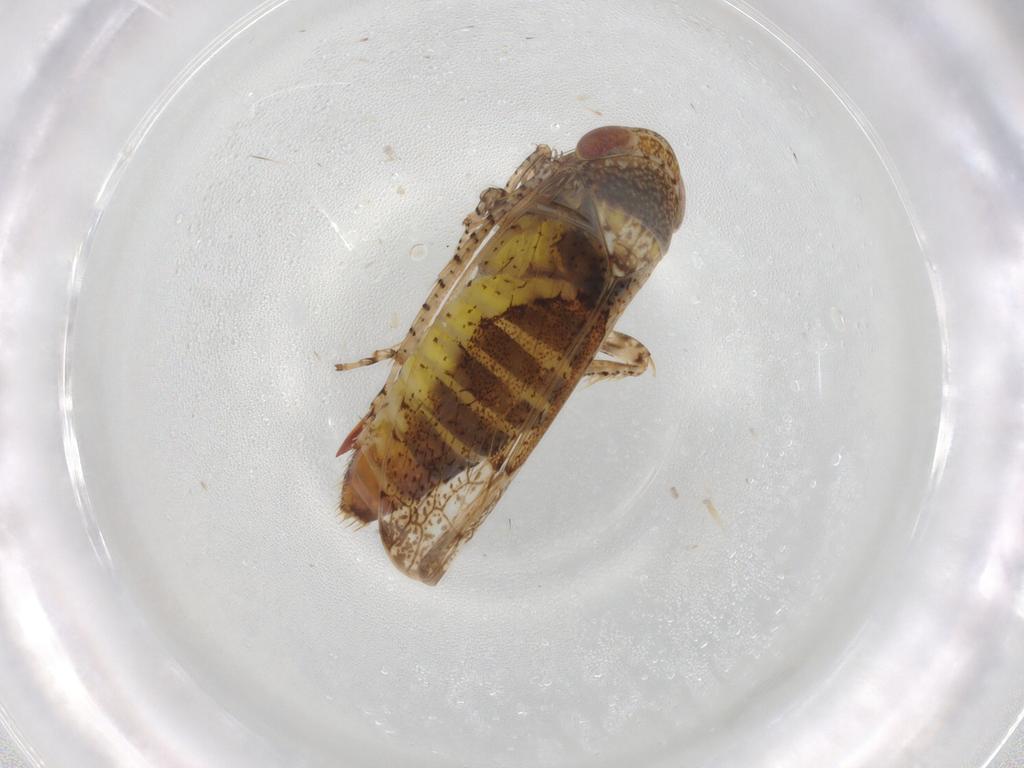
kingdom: Animalia
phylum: Arthropoda
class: Insecta
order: Hemiptera
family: Cicadellidae
